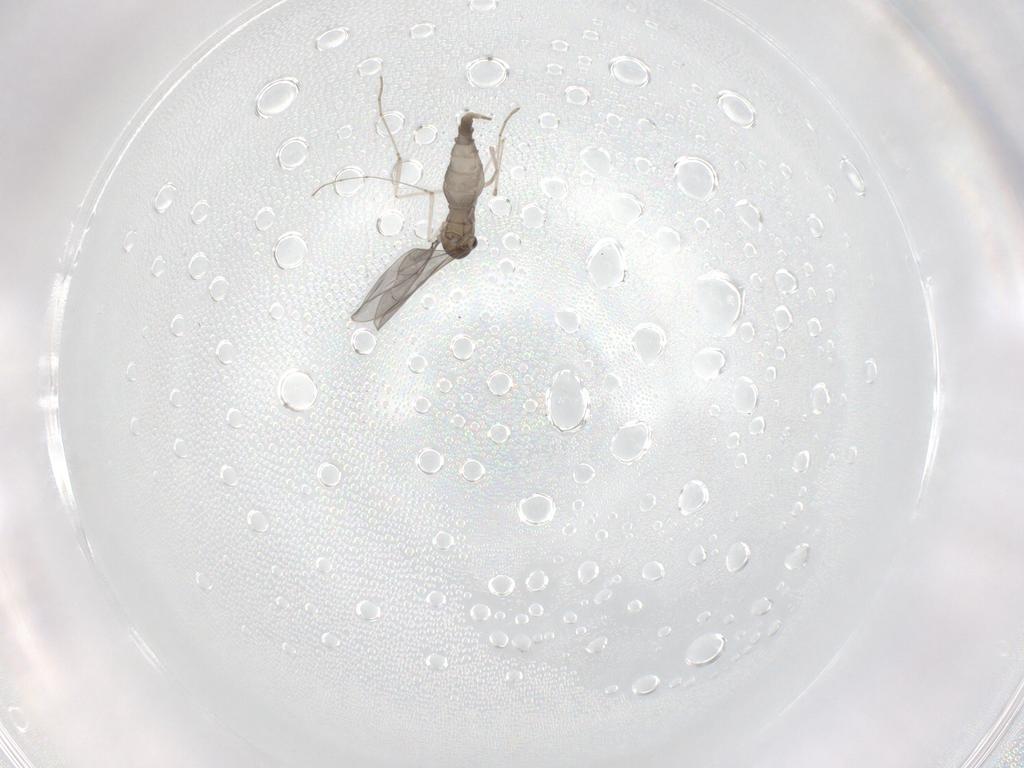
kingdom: Animalia
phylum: Arthropoda
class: Insecta
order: Diptera
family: Cecidomyiidae
